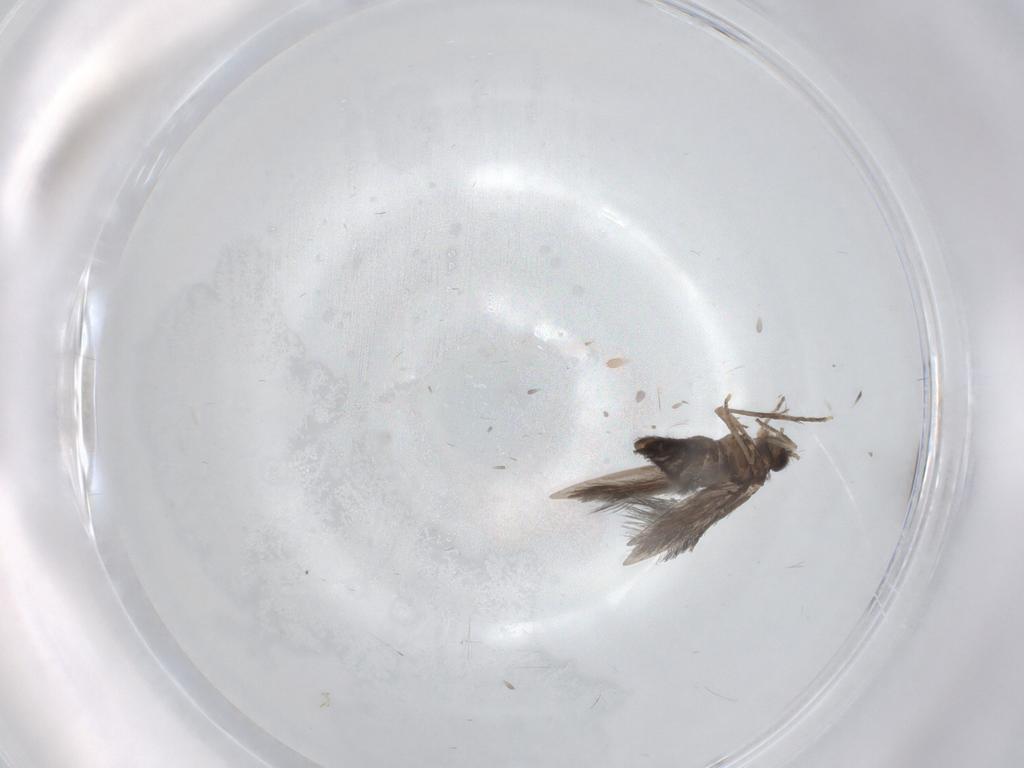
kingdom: Animalia
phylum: Arthropoda
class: Insecta
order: Trichoptera
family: Hydroptilidae
